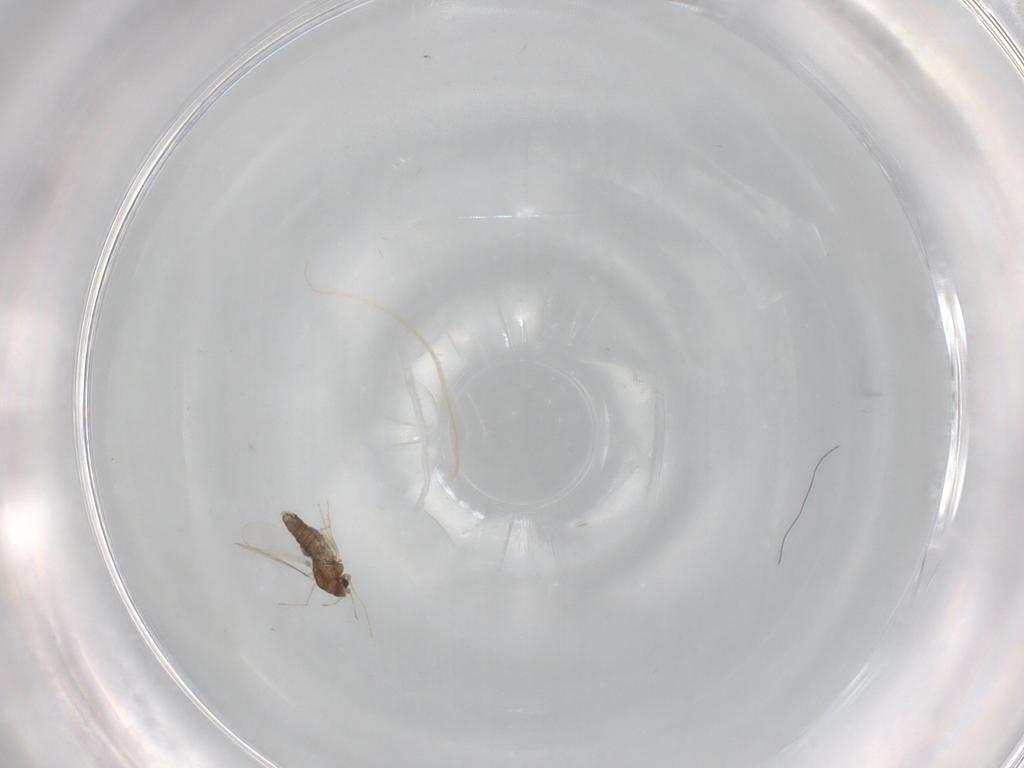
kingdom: Animalia
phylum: Arthropoda
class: Insecta
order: Diptera
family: Chironomidae
